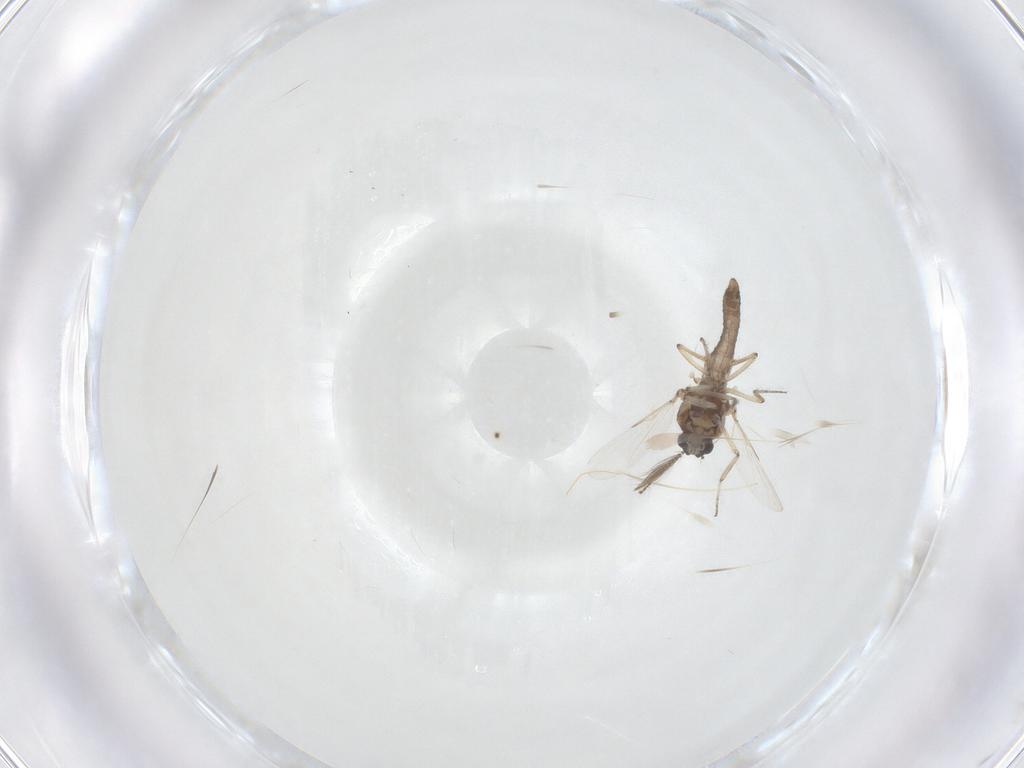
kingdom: Animalia
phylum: Arthropoda
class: Insecta
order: Diptera
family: Ceratopogonidae
